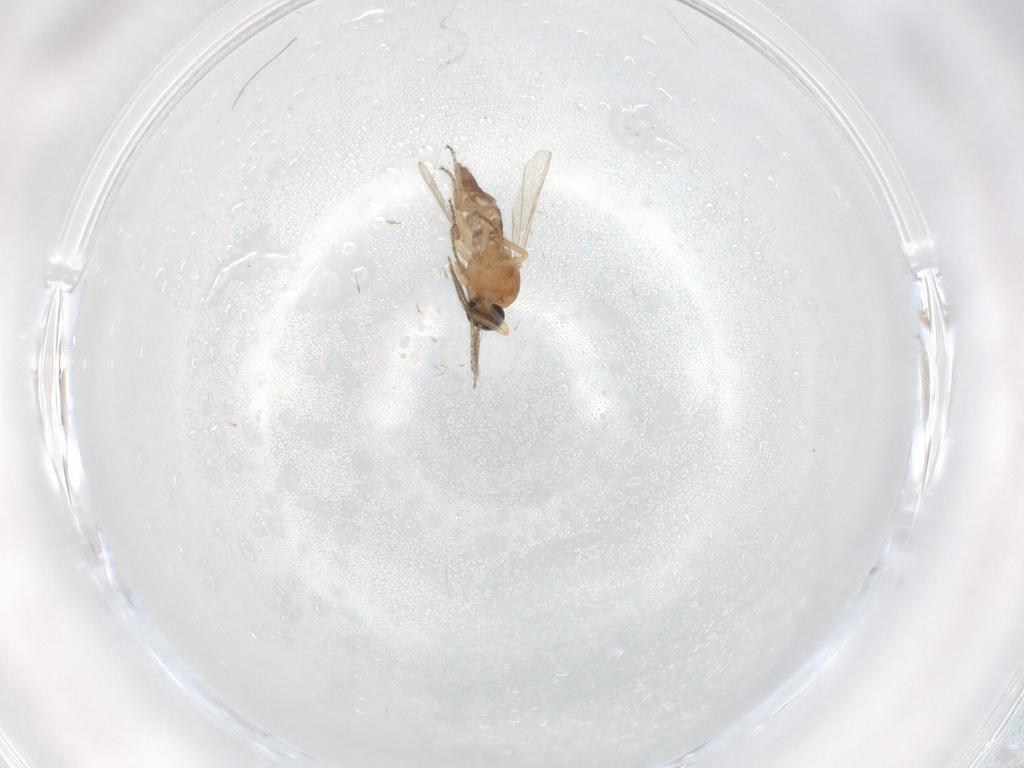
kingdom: Animalia
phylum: Arthropoda
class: Insecta
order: Diptera
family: Ceratopogonidae
